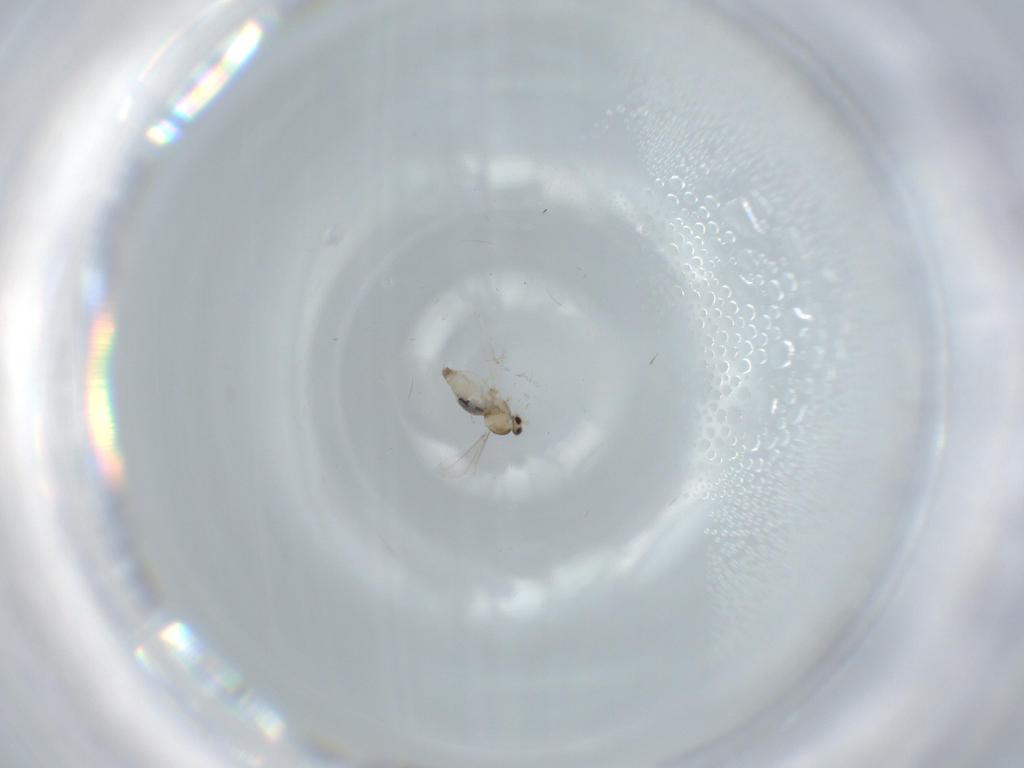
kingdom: Animalia
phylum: Arthropoda
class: Insecta
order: Diptera
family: Cecidomyiidae
